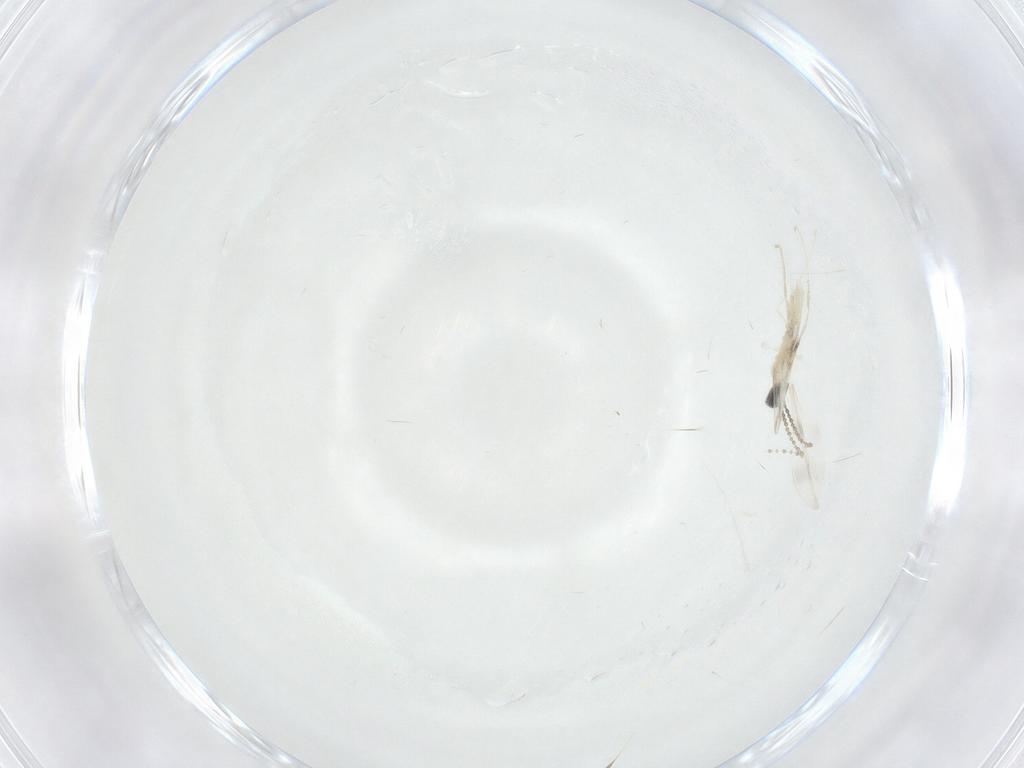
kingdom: Animalia
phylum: Arthropoda
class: Insecta
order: Diptera
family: Cecidomyiidae
